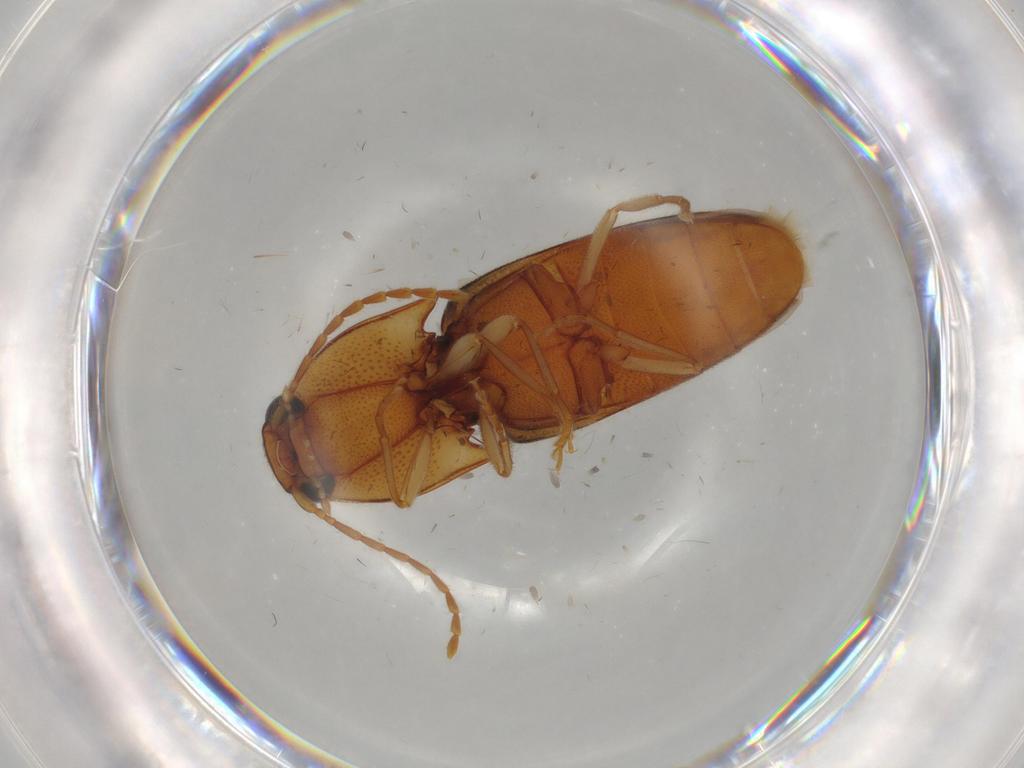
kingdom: Animalia
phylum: Arthropoda
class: Insecta
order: Coleoptera
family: Elateridae
